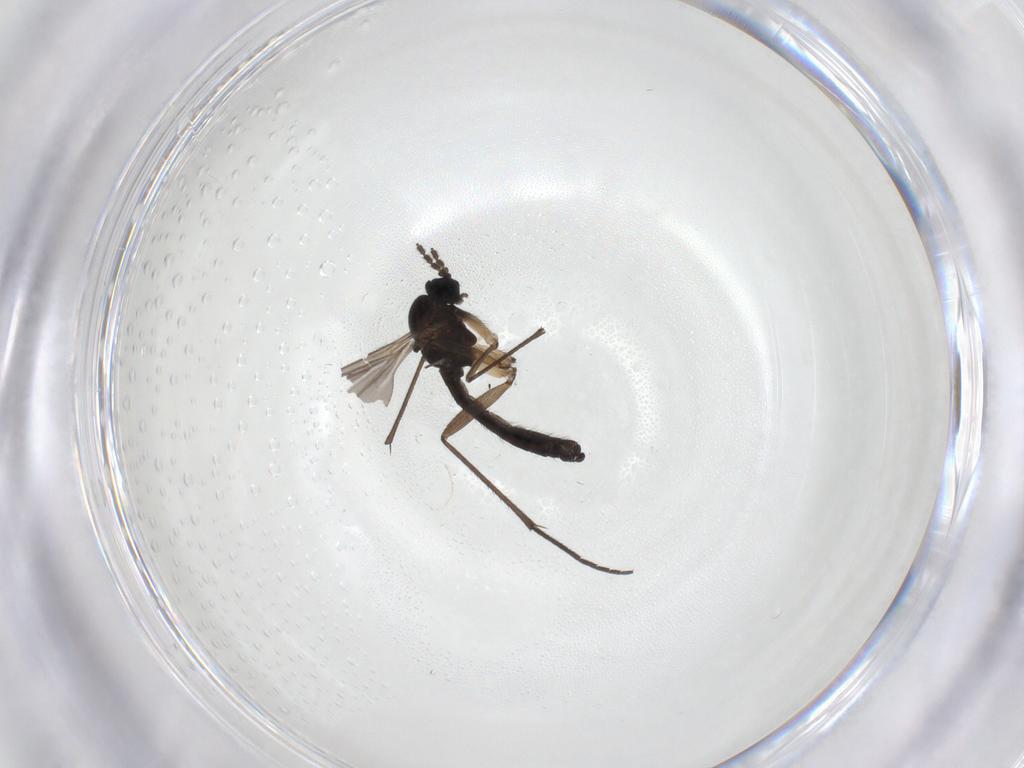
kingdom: Animalia
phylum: Arthropoda
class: Insecta
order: Diptera
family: Sciaridae
